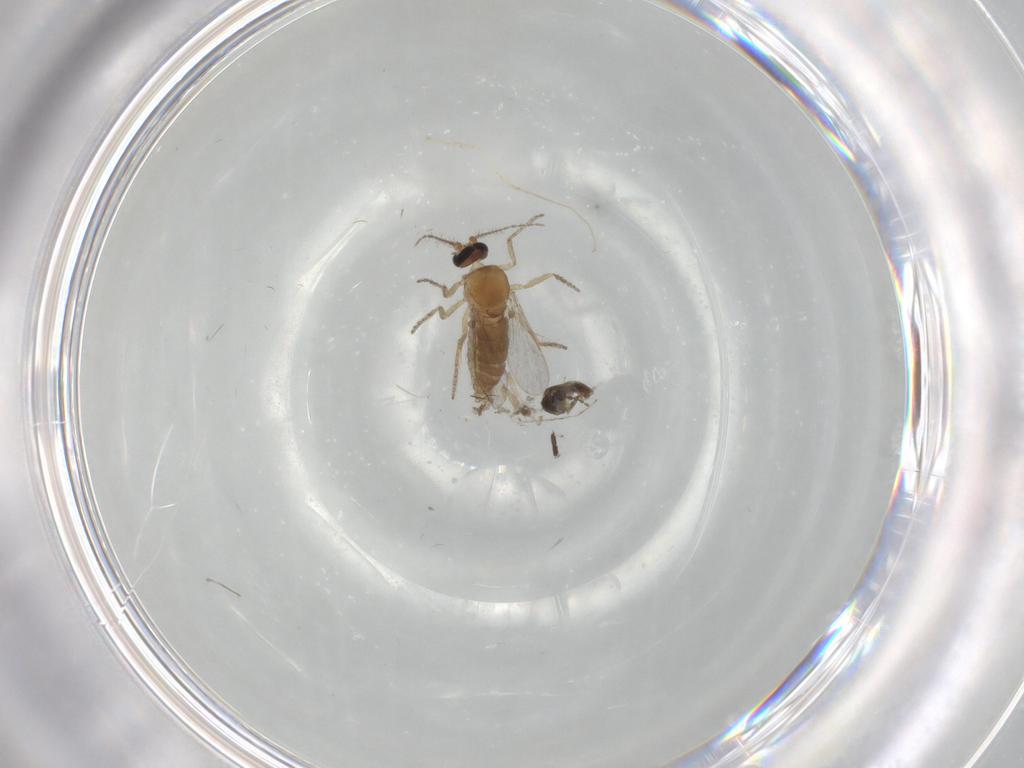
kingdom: Animalia
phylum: Arthropoda
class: Insecta
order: Diptera
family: Cecidomyiidae
